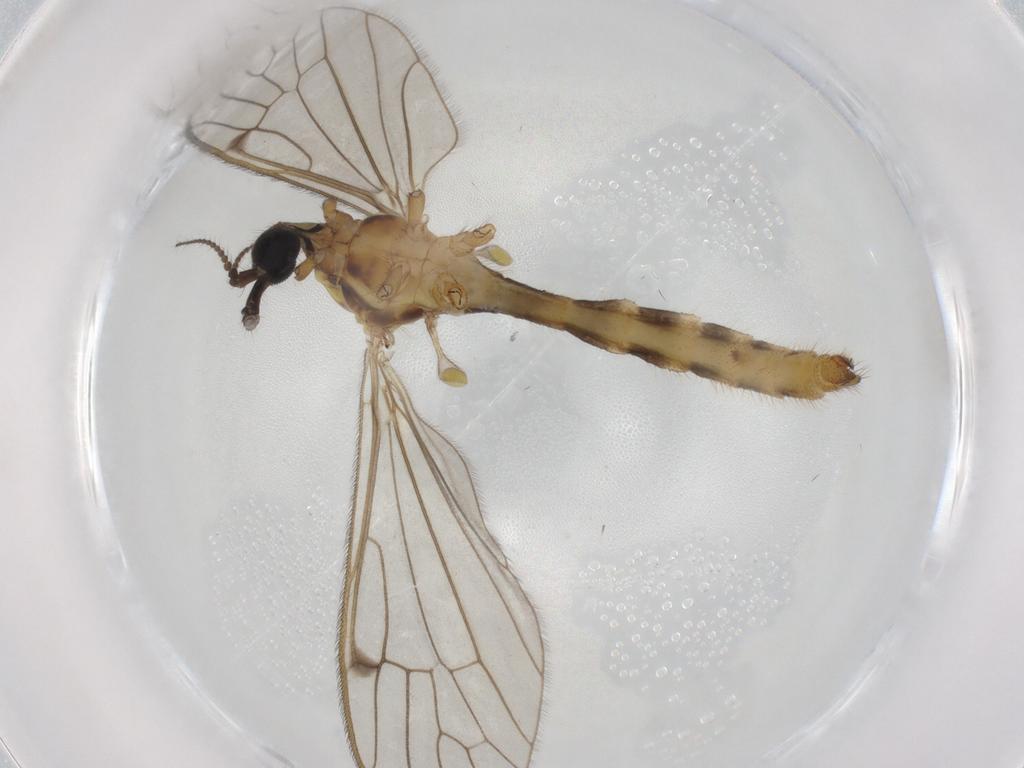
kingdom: Animalia
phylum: Arthropoda
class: Insecta
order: Diptera
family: Limoniidae
